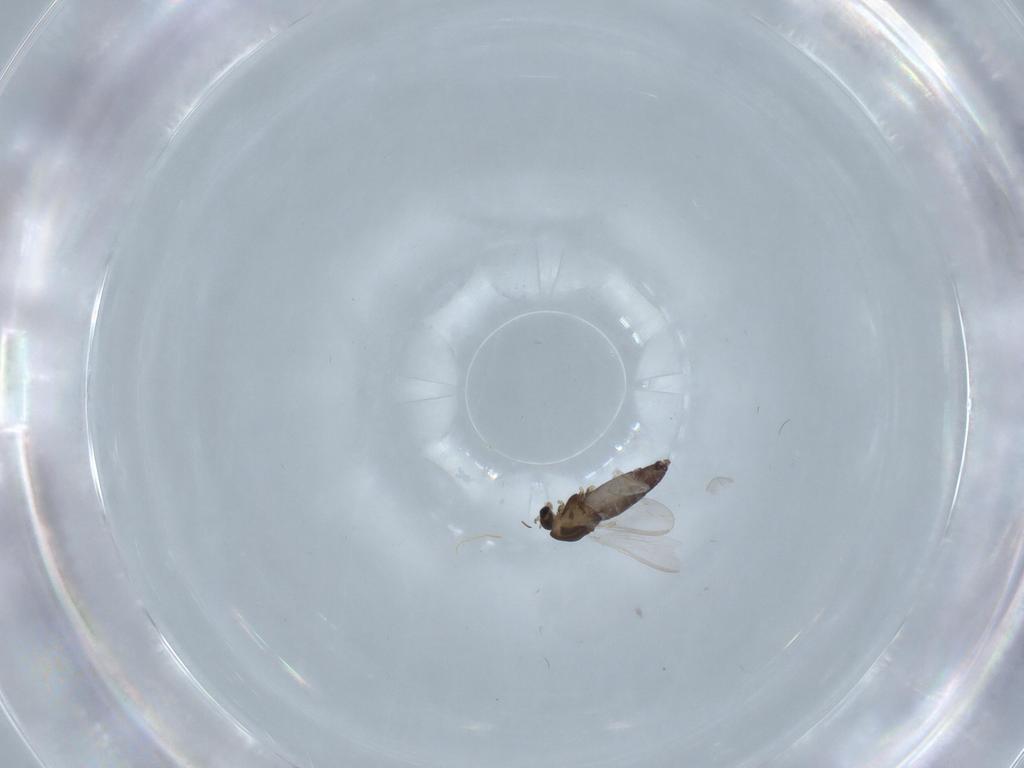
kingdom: Animalia
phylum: Arthropoda
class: Insecta
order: Diptera
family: Chironomidae
